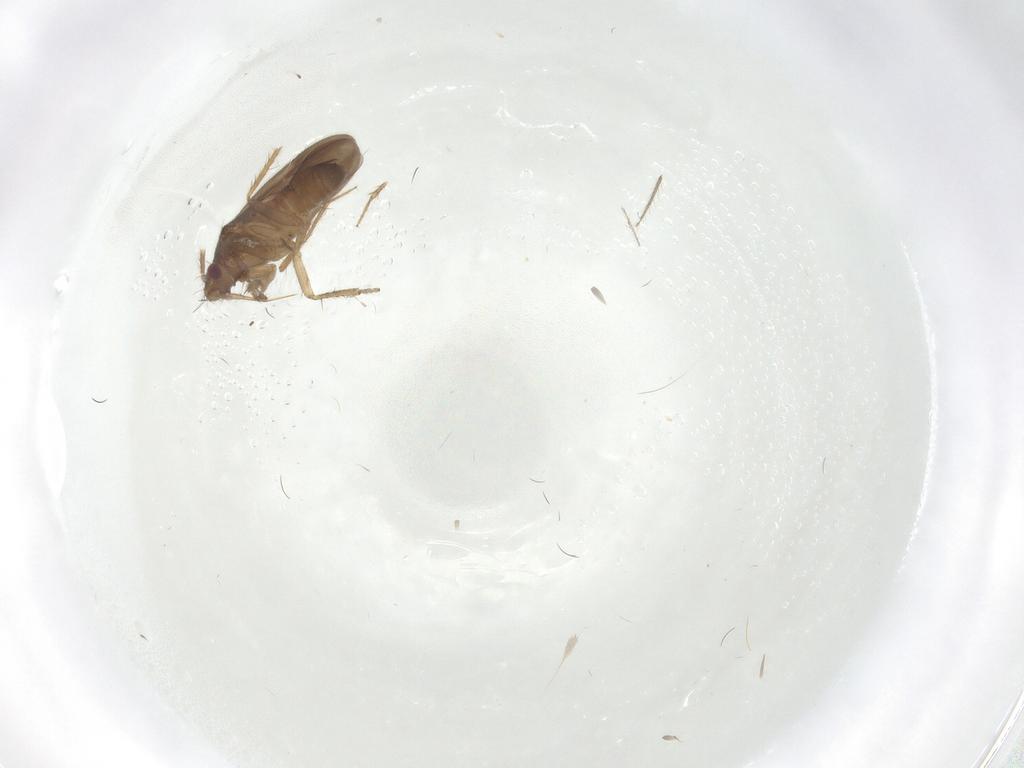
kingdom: Animalia
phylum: Arthropoda
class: Insecta
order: Hemiptera
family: Ceratocombidae
